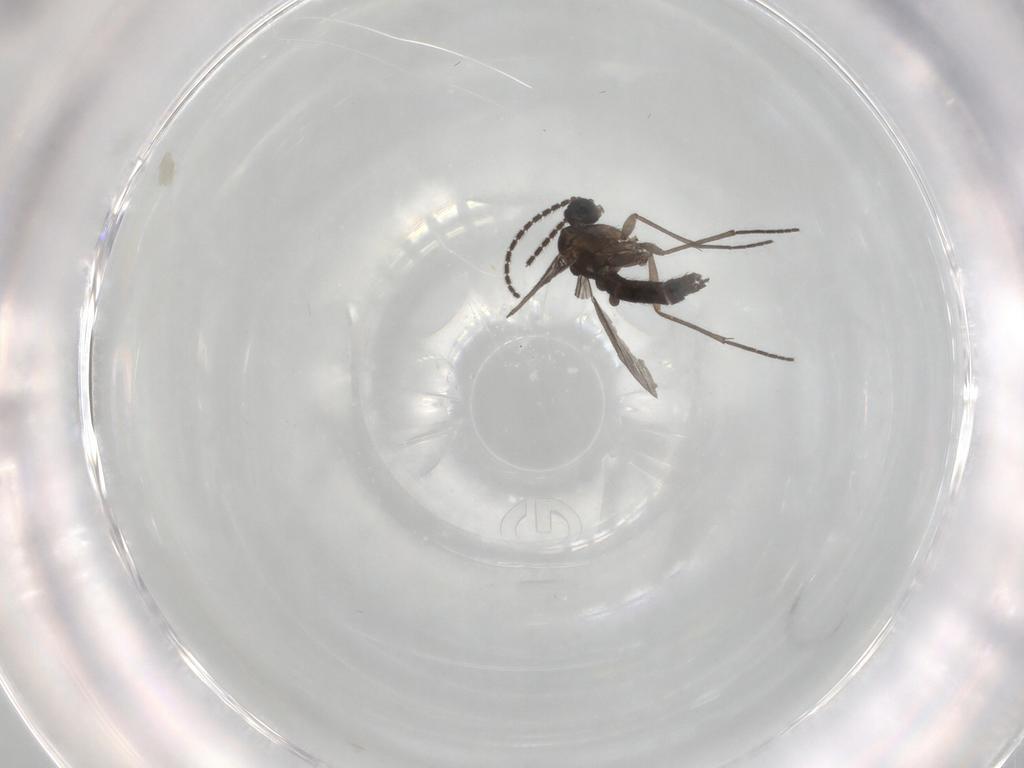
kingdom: Animalia
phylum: Arthropoda
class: Insecta
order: Diptera
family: Sciaridae
